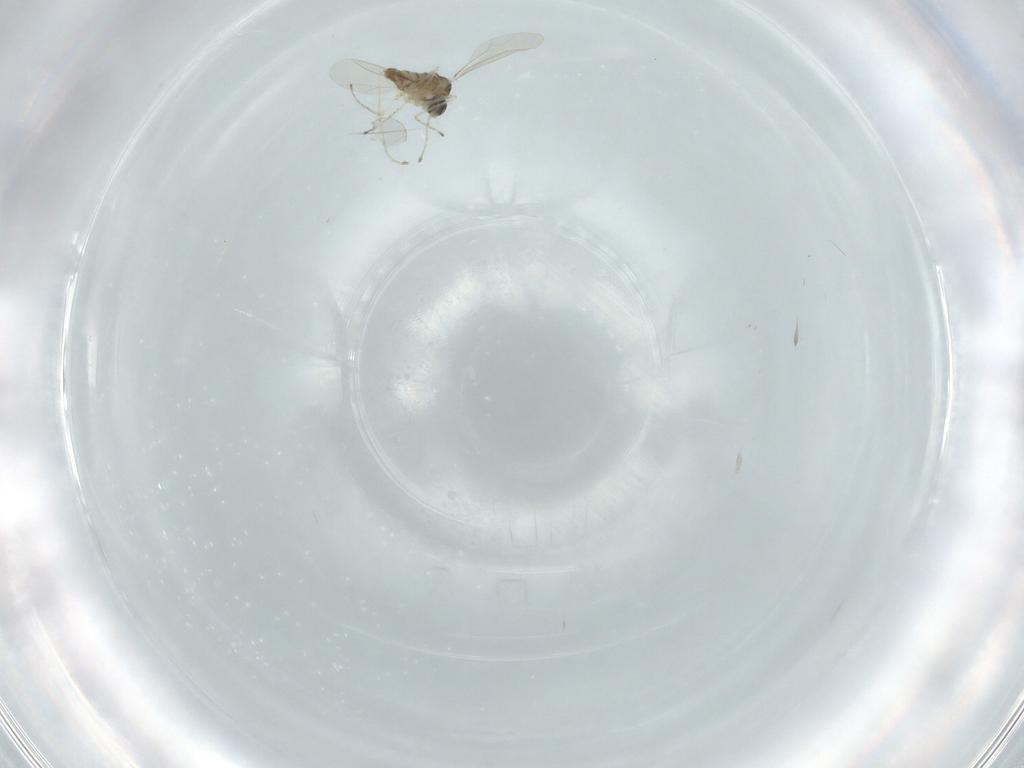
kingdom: Animalia
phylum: Arthropoda
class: Insecta
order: Diptera
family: Cecidomyiidae
